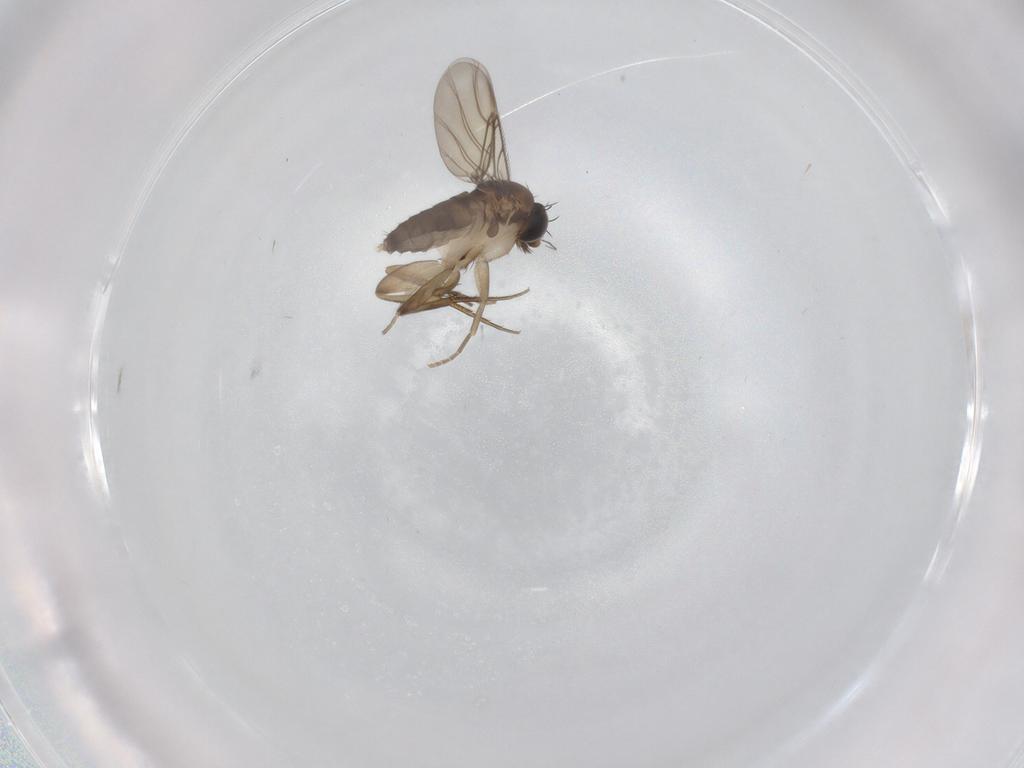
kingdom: Animalia
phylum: Arthropoda
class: Insecta
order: Diptera
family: Phoridae
